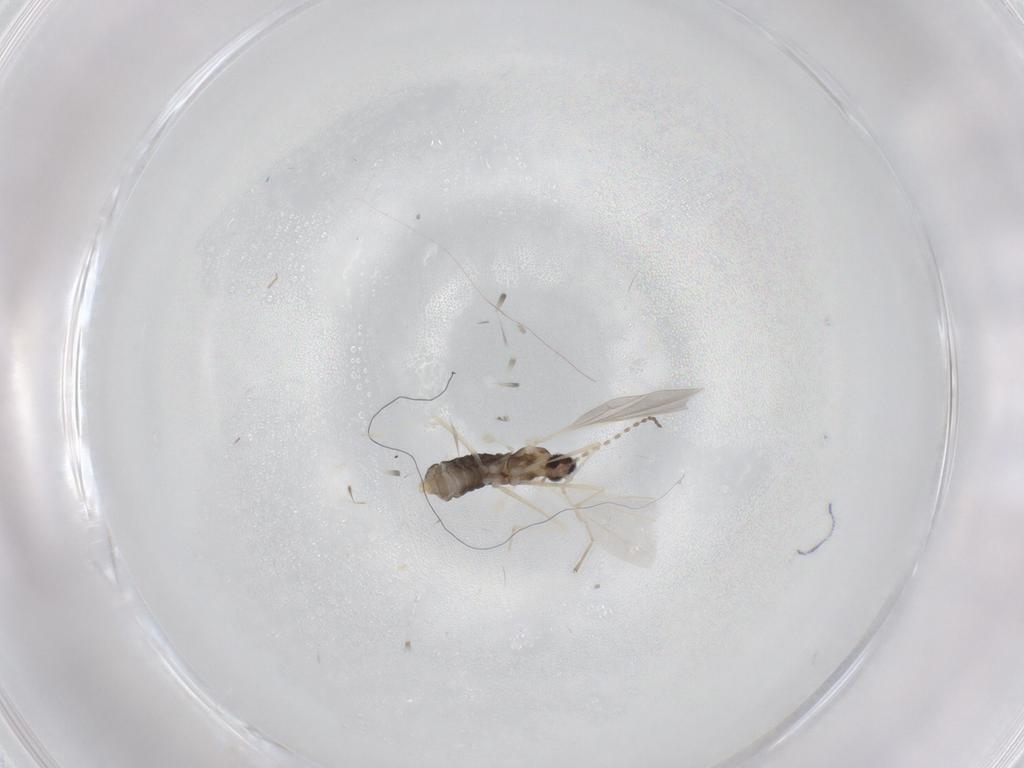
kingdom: Animalia
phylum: Arthropoda
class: Insecta
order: Diptera
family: Cecidomyiidae
